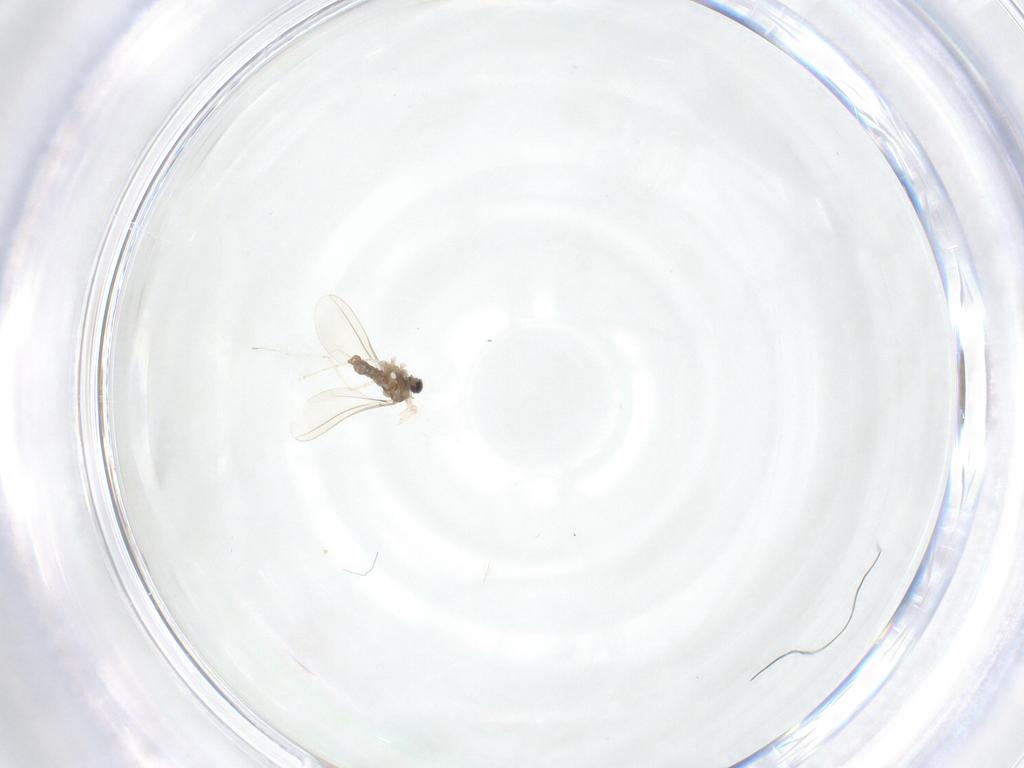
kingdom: Animalia
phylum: Arthropoda
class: Insecta
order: Diptera
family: Cecidomyiidae
